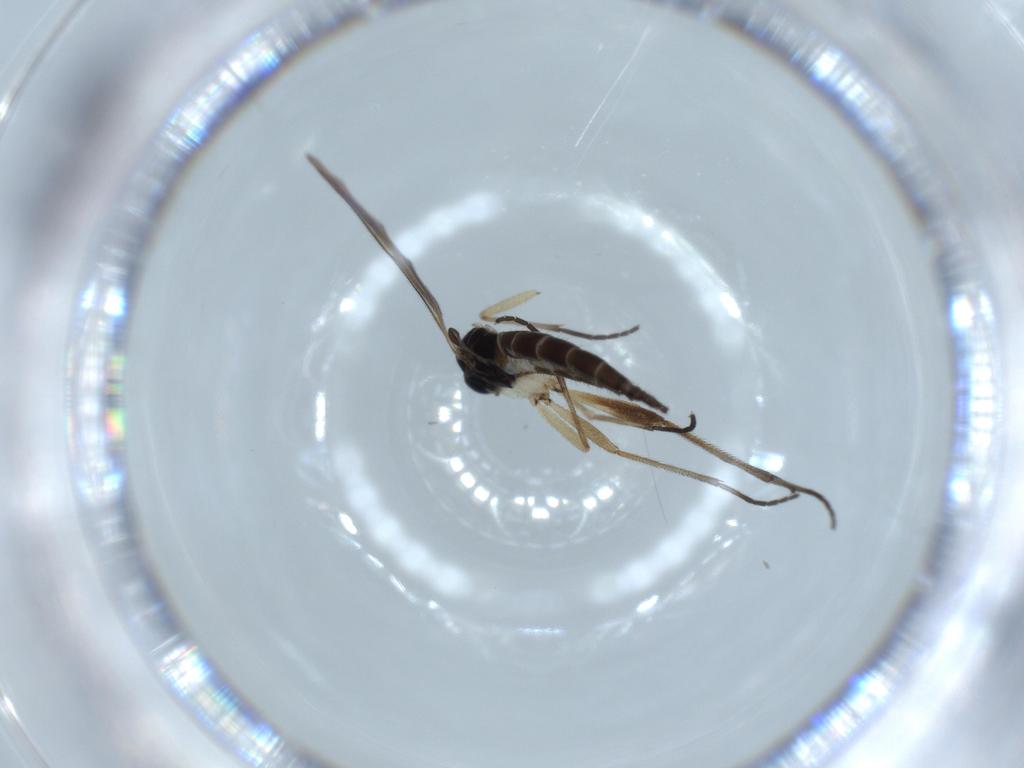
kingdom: Animalia
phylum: Arthropoda
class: Insecta
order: Diptera
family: Sciaridae
